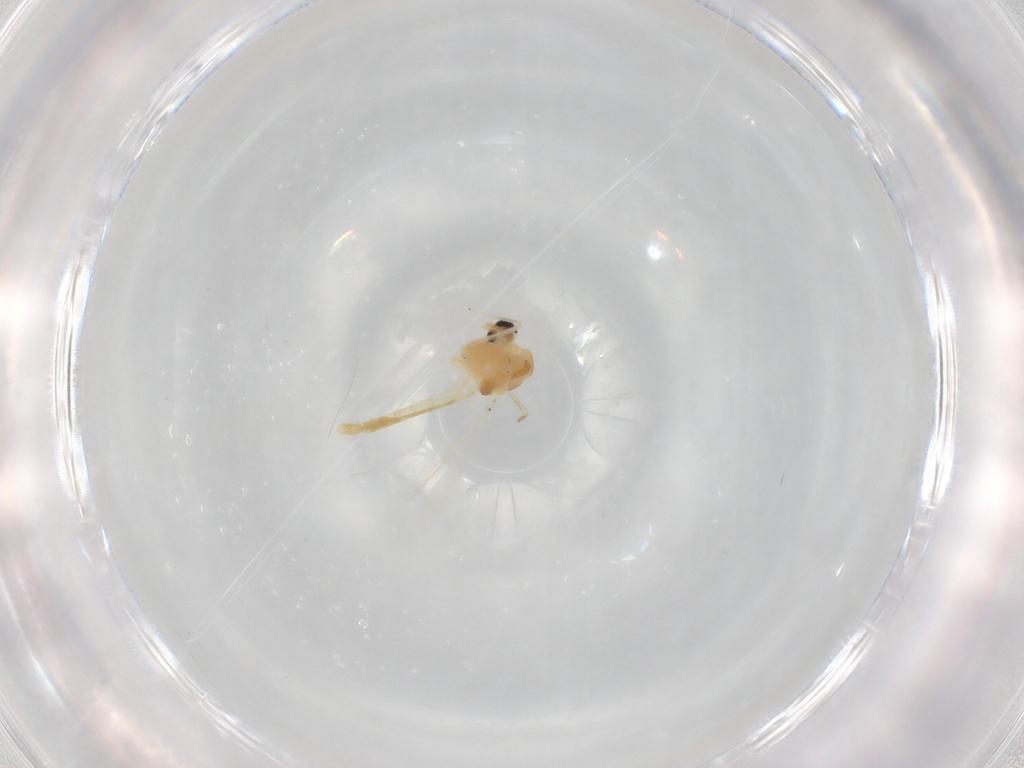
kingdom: Animalia
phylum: Arthropoda
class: Insecta
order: Diptera
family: Chironomidae
